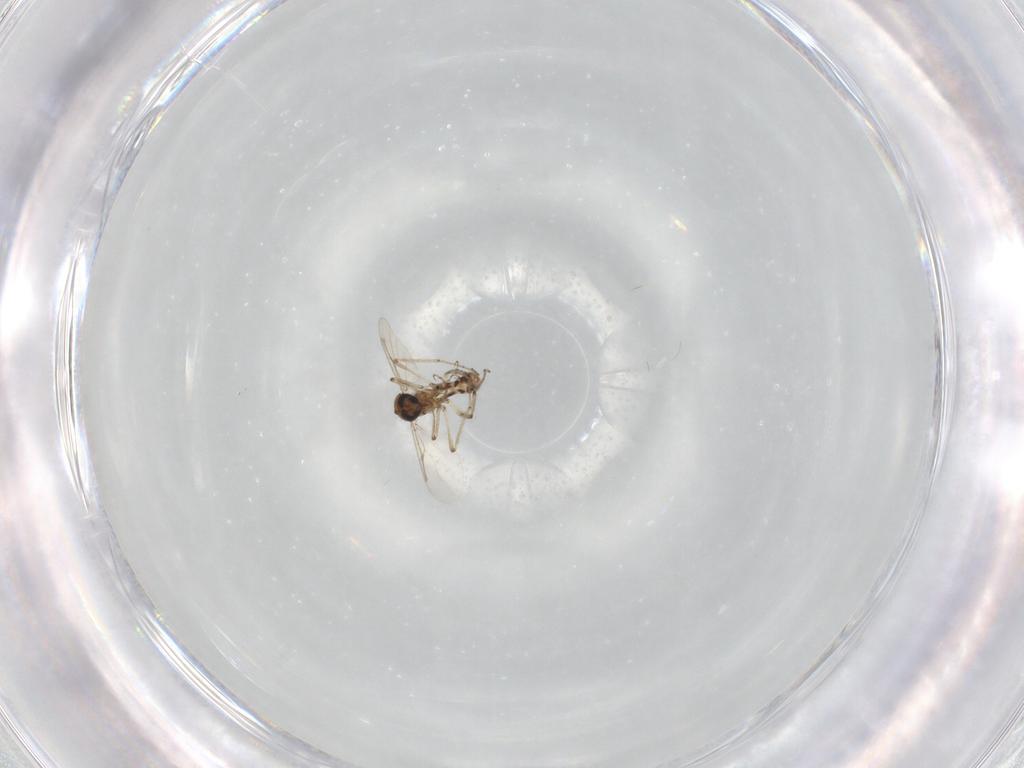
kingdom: Animalia
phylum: Arthropoda
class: Insecta
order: Diptera
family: Ceratopogonidae
